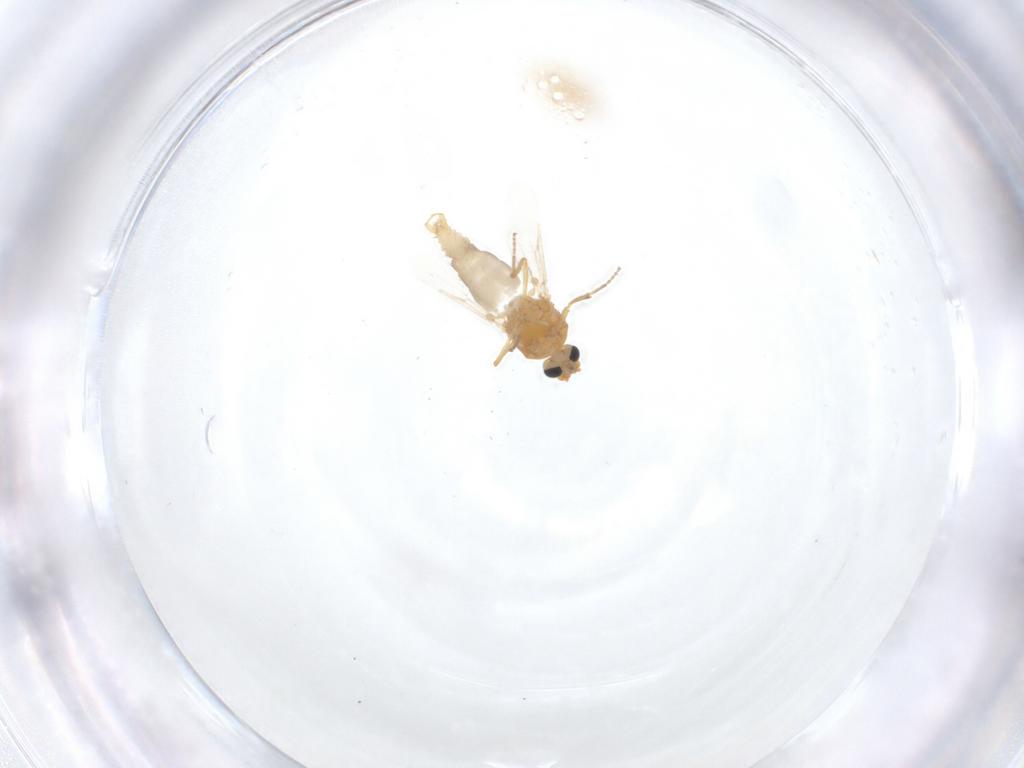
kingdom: Animalia
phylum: Arthropoda
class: Insecta
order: Diptera
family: Ceratopogonidae
